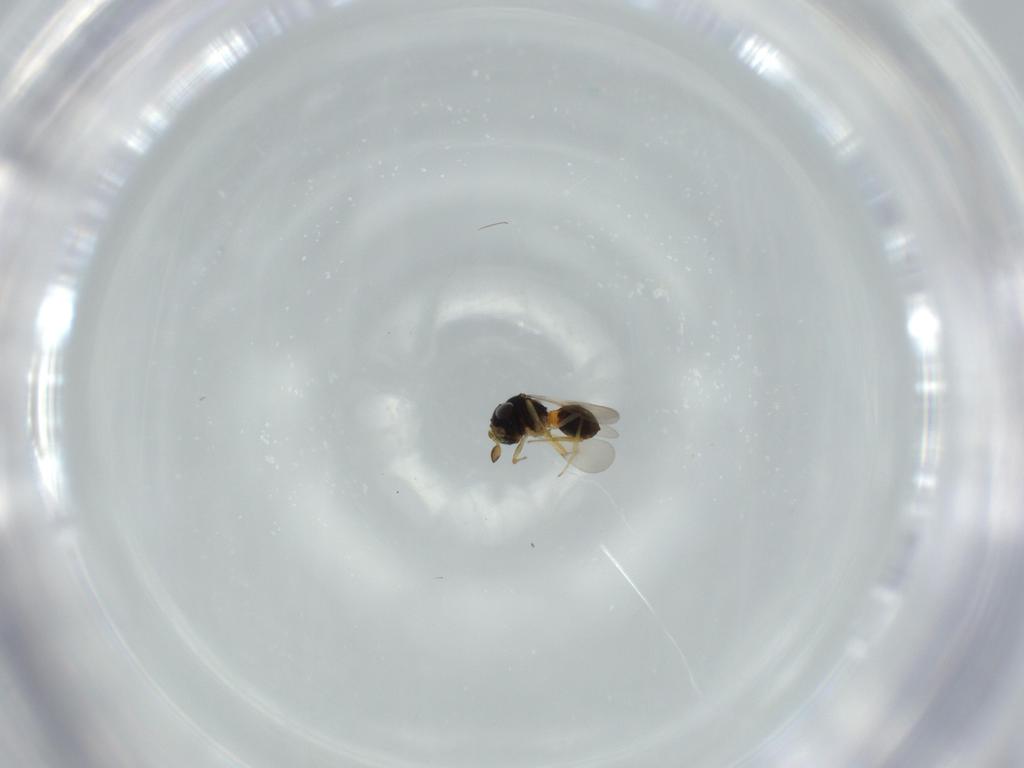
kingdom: Animalia
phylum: Arthropoda
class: Insecta
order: Hymenoptera
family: Scelionidae
